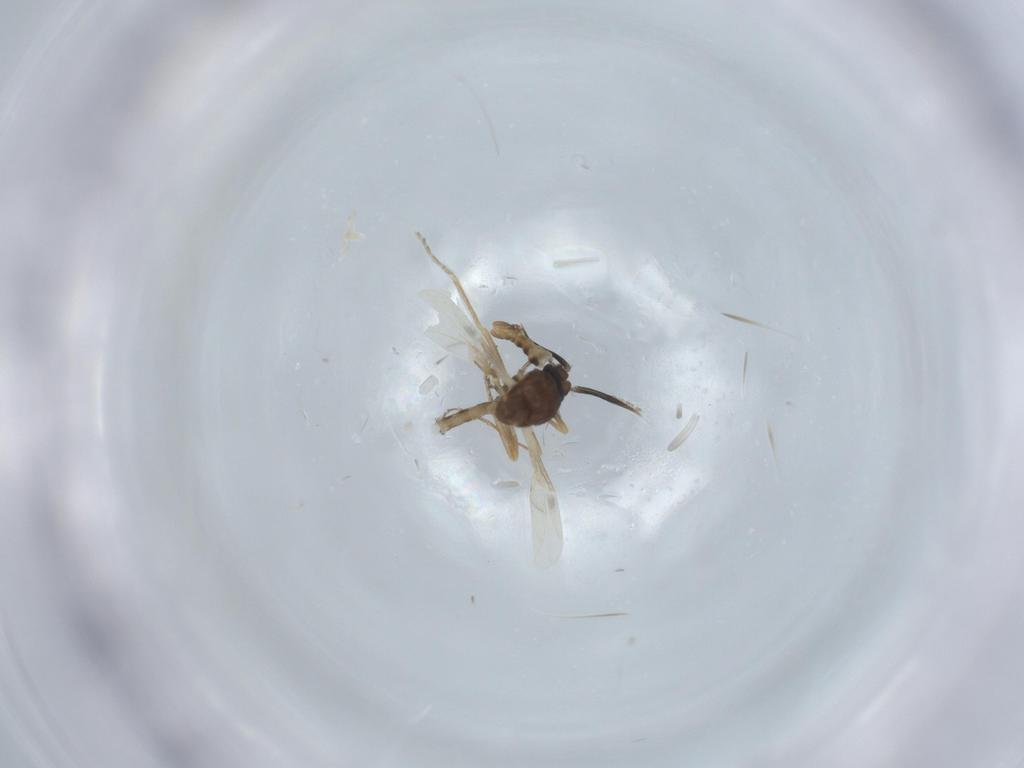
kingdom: Animalia
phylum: Arthropoda
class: Insecta
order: Diptera
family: Ceratopogonidae
